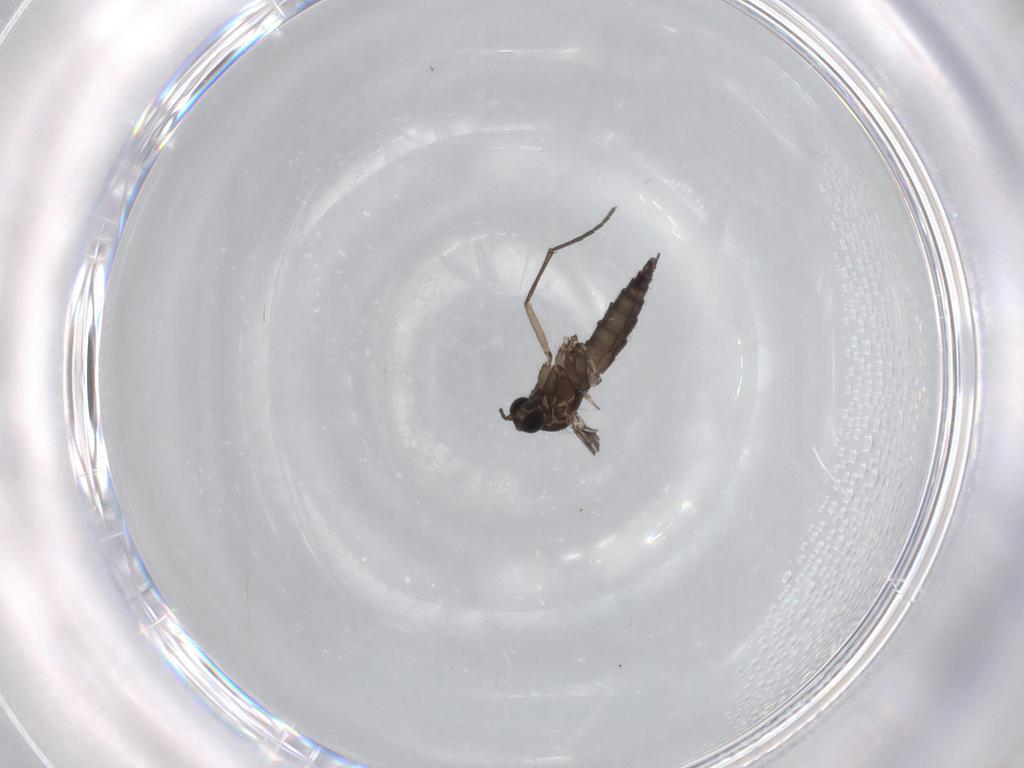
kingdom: Animalia
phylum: Arthropoda
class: Insecta
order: Diptera
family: Sciaridae
